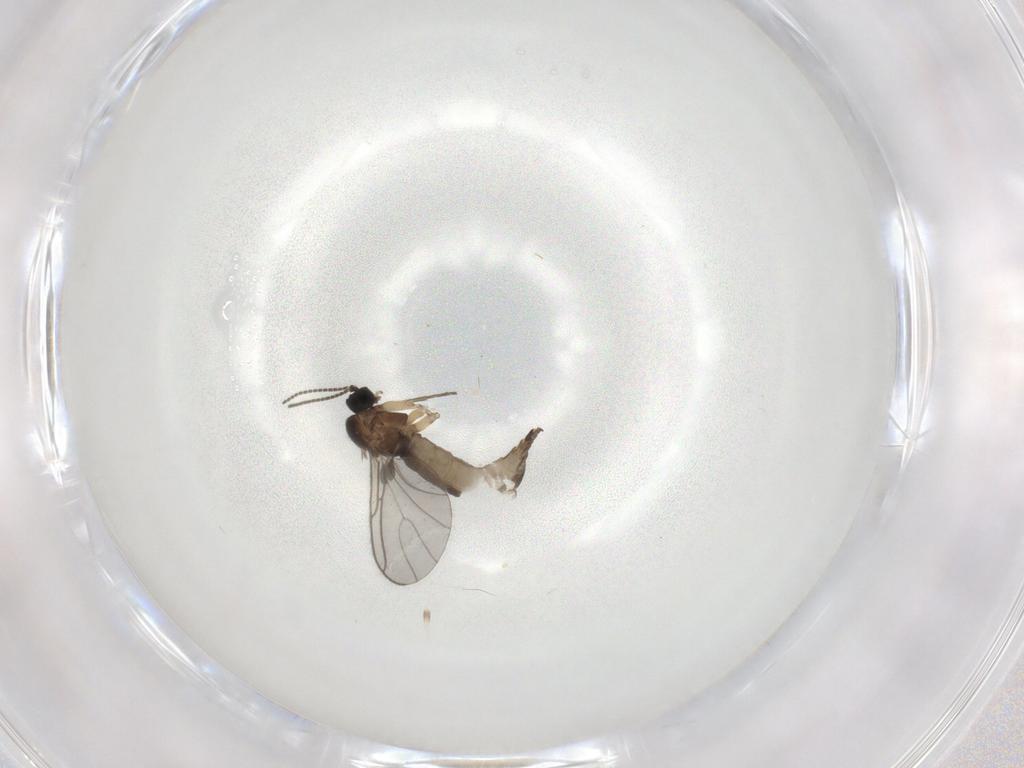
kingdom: Animalia
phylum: Arthropoda
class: Insecta
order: Diptera
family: Sciaridae
